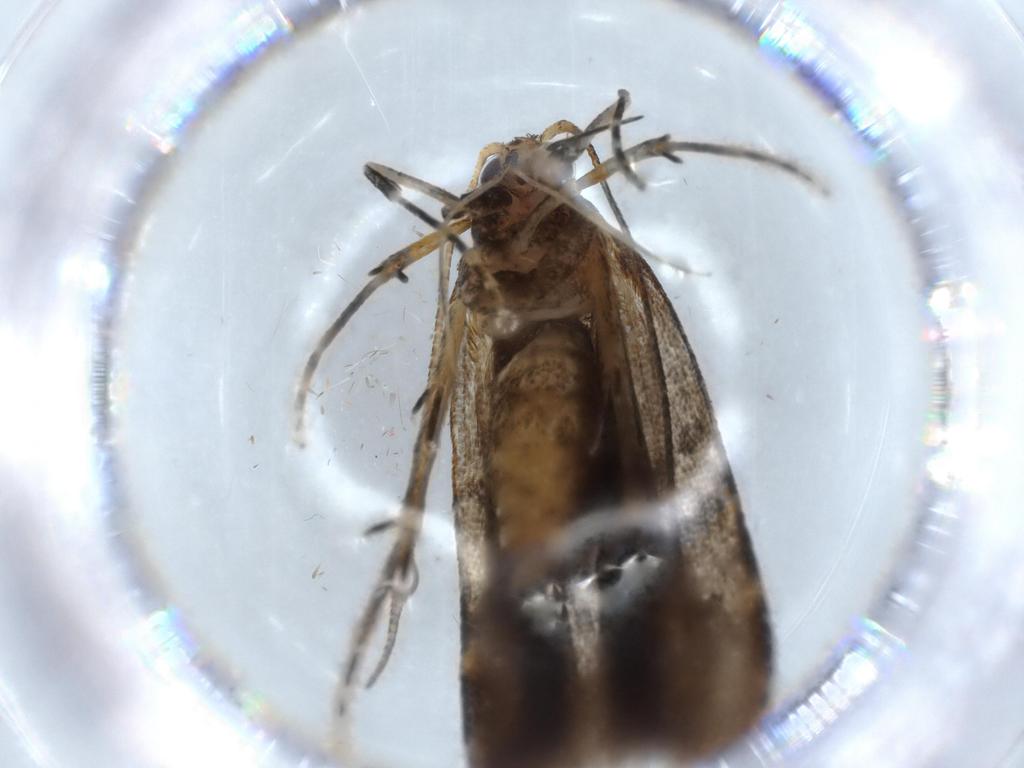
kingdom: Animalia
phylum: Arthropoda
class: Insecta
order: Lepidoptera
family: Autostichidae
